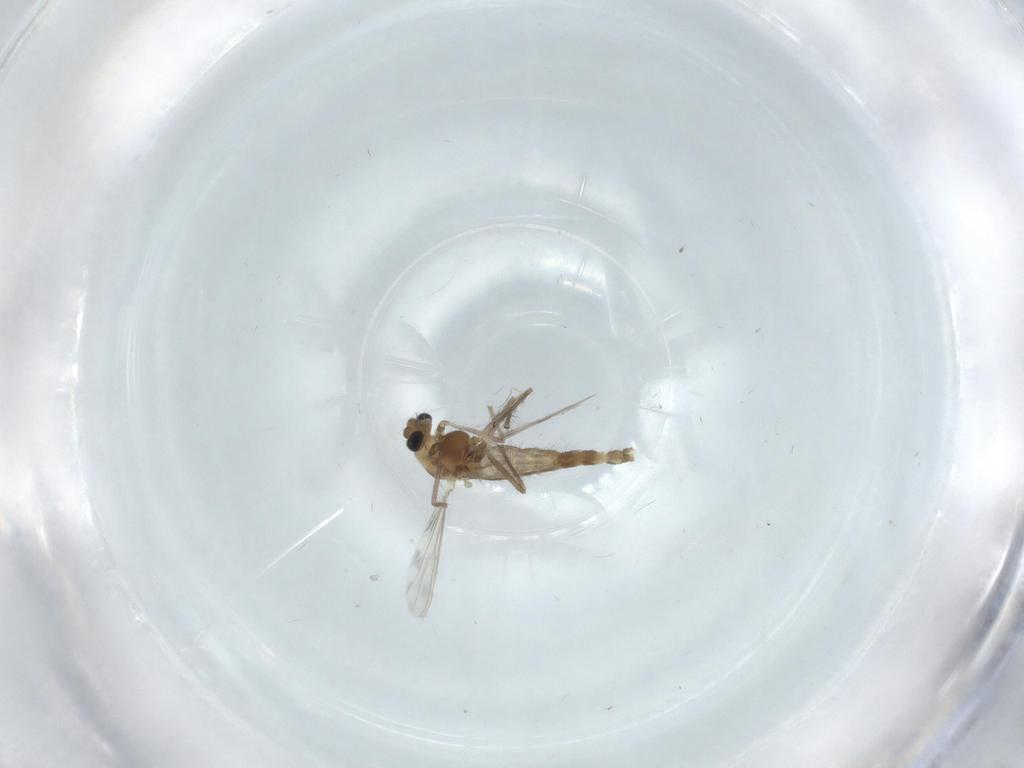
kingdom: Animalia
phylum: Arthropoda
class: Insecta
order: Diptera
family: Chironomidae
